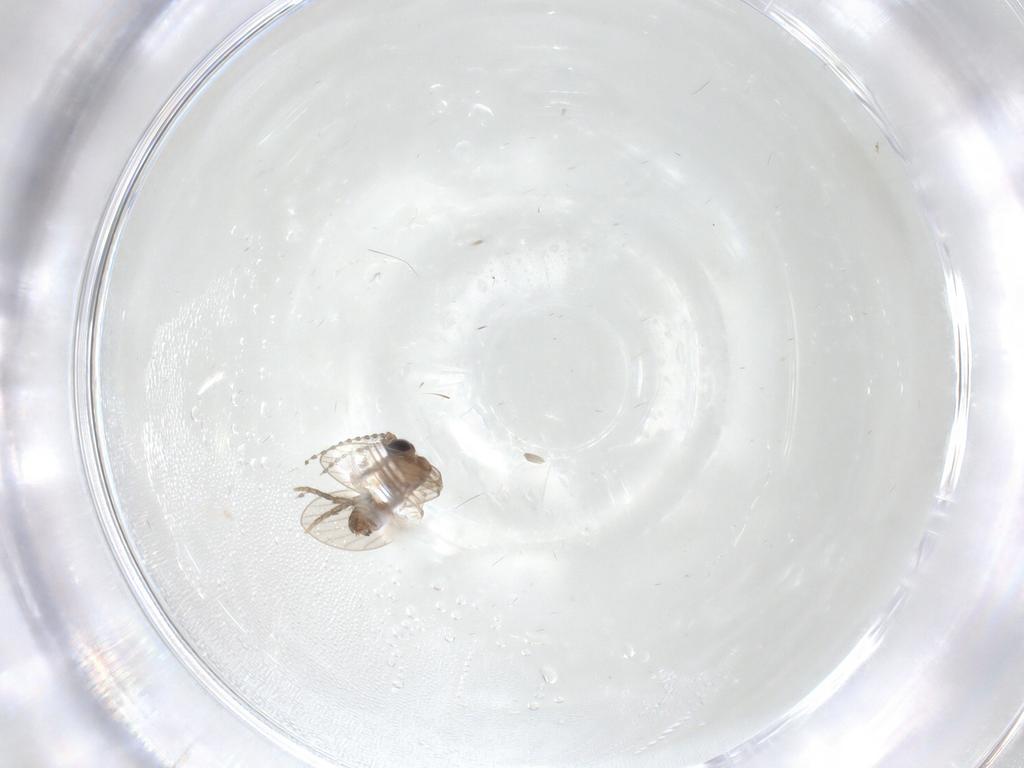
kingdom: Animalia
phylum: Arthropoda
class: Insecta
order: Diptera
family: Psychodidae
